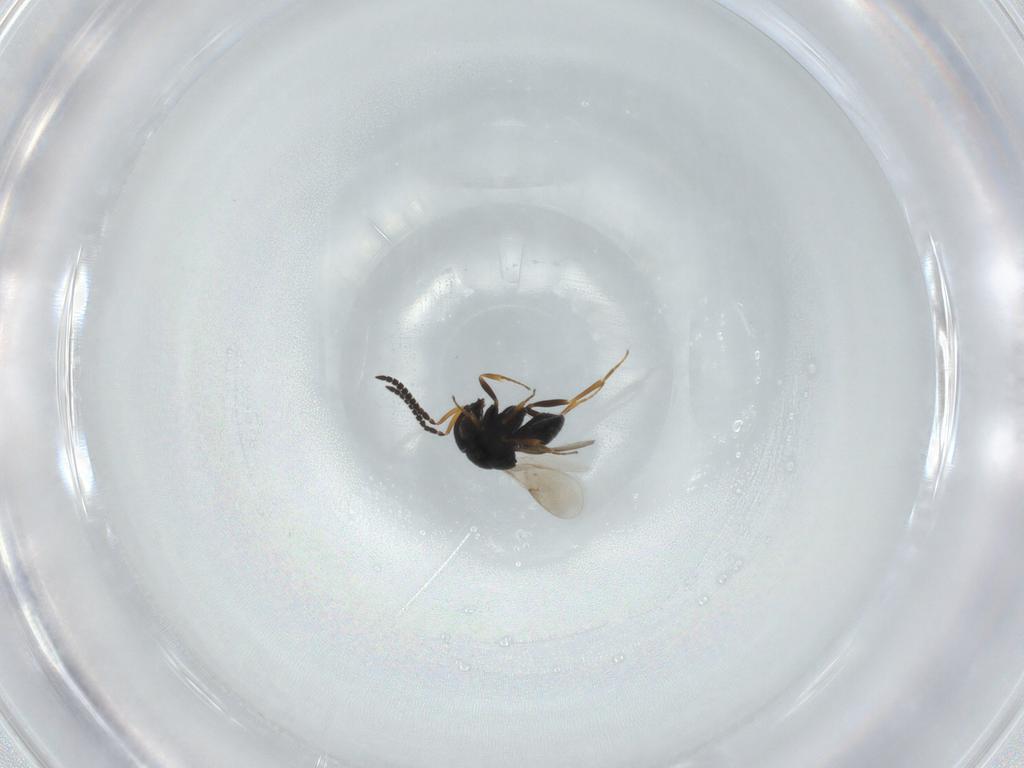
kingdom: Animalia
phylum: Arthropoda
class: Insecta
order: Hymenoptera
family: Scelionidae
